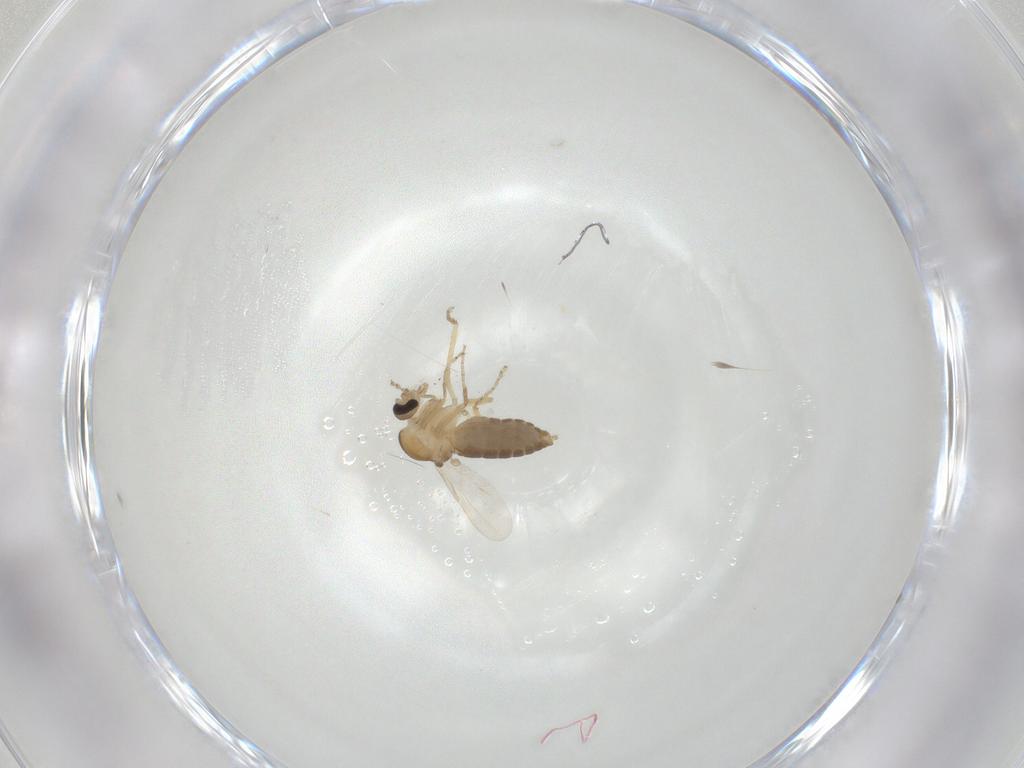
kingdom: Animalia
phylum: Arthropoda
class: Insecta
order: Diptera
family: Ceratopogonidae
